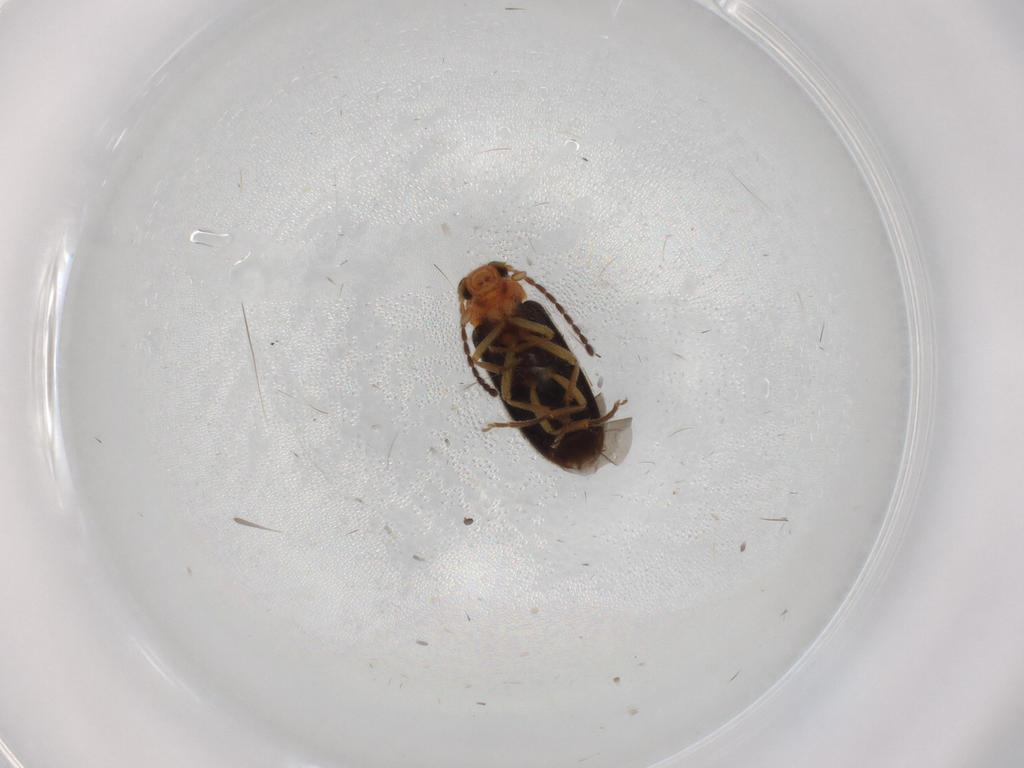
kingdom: Animalia
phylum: Arthropoda
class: Insecta
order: Coleoptera
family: Melandryidae
